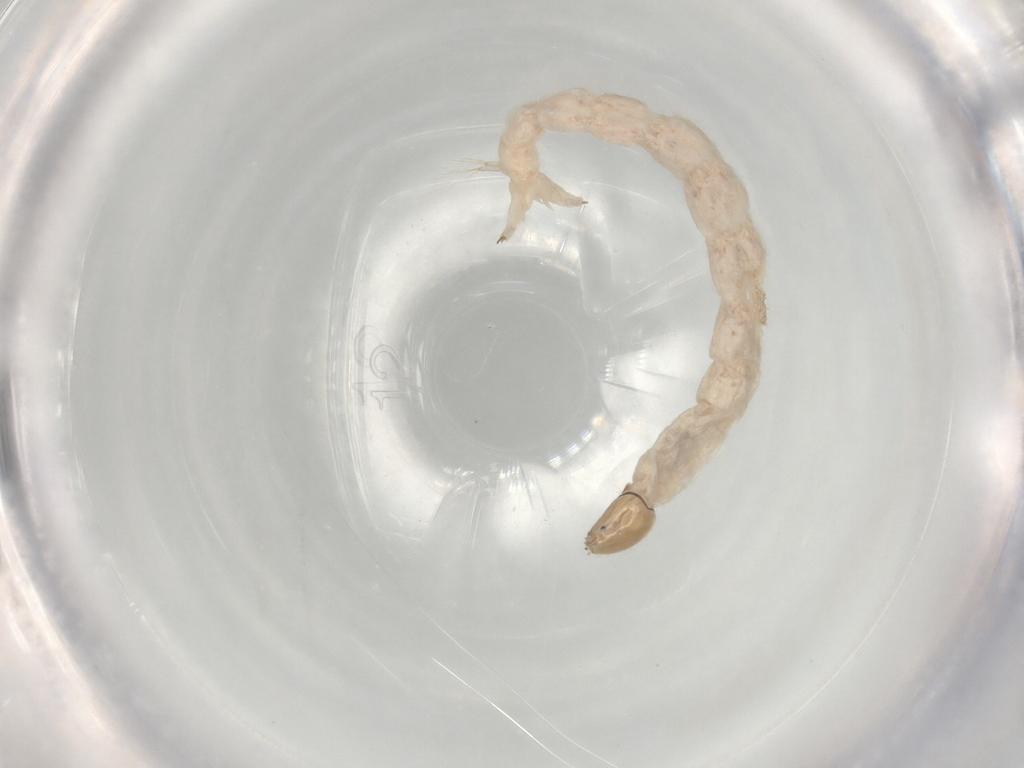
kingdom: Animalia
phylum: Arthropoda
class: Insecta
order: Diptera
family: Chironomidae
